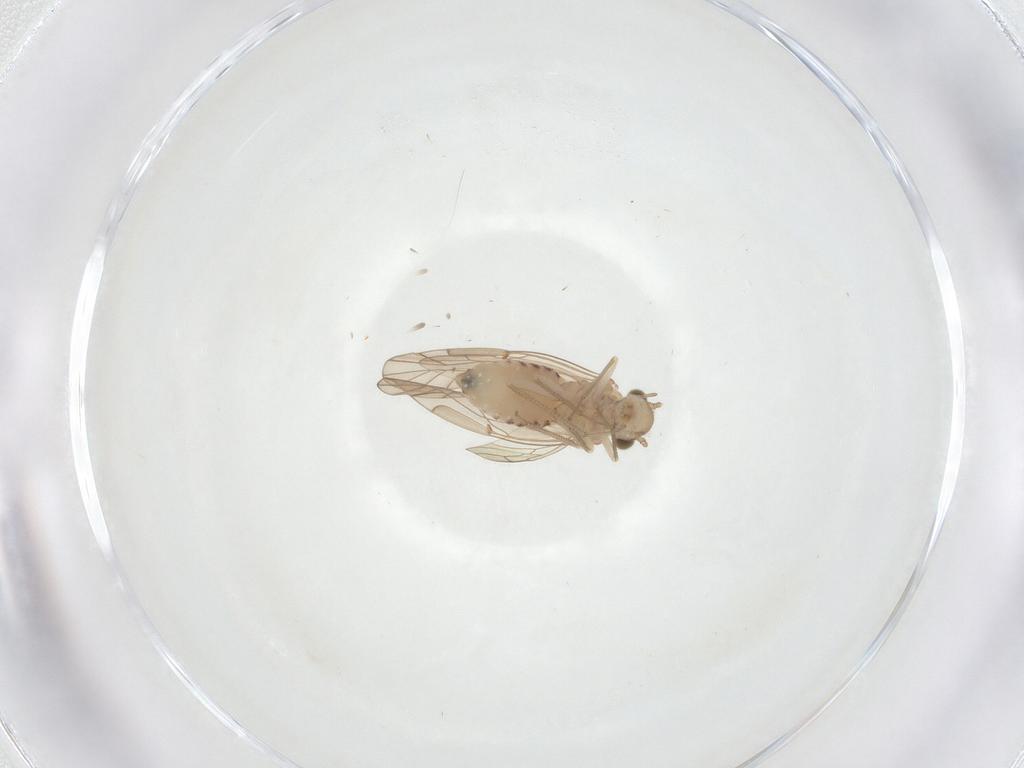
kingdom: Animalia
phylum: Arthropoda
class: Insecta
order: Psocodea
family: Lachesillidae
